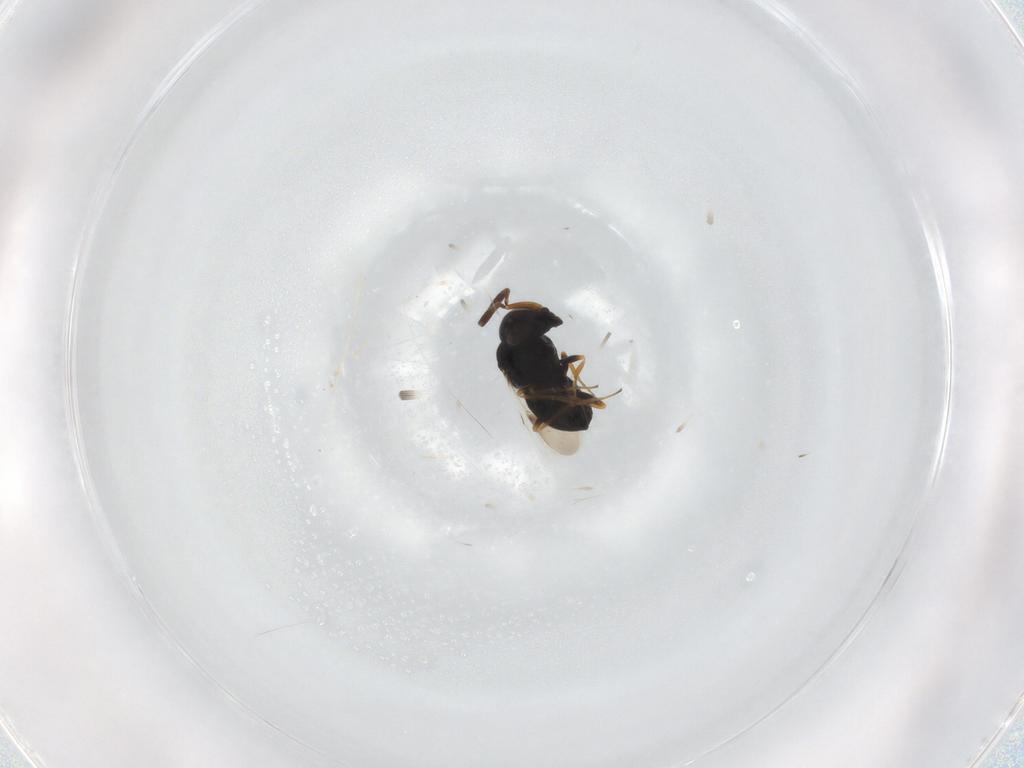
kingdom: Animalia
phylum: Arthropoda
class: Insecta
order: Hymenoptera
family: Scelionidae
